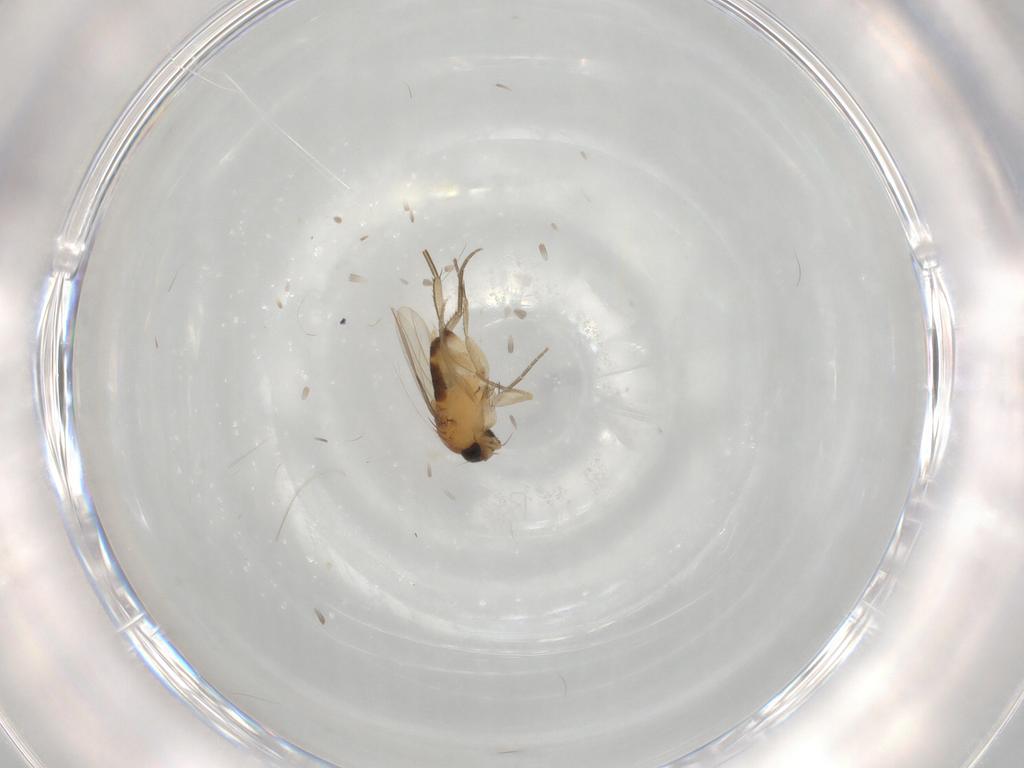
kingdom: Animalia
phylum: Arthropoda
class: Insecta
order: Diptera
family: Phoridae
